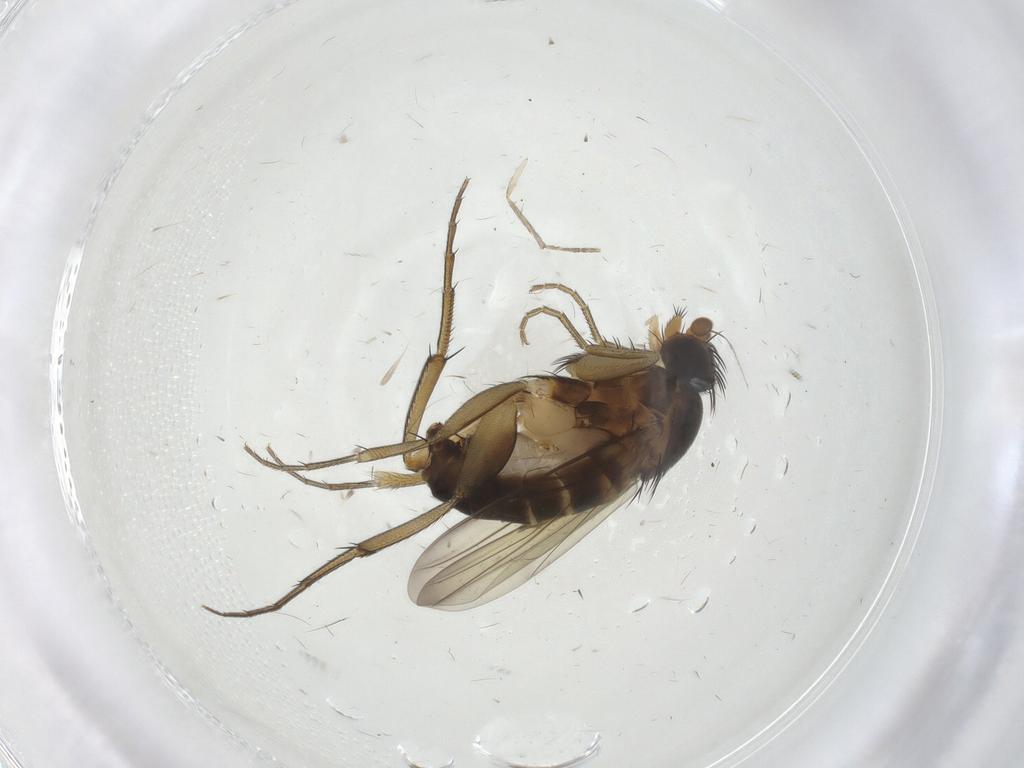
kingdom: Animalia
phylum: Arthropoda
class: Insecta
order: Diptera
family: Phoridae
